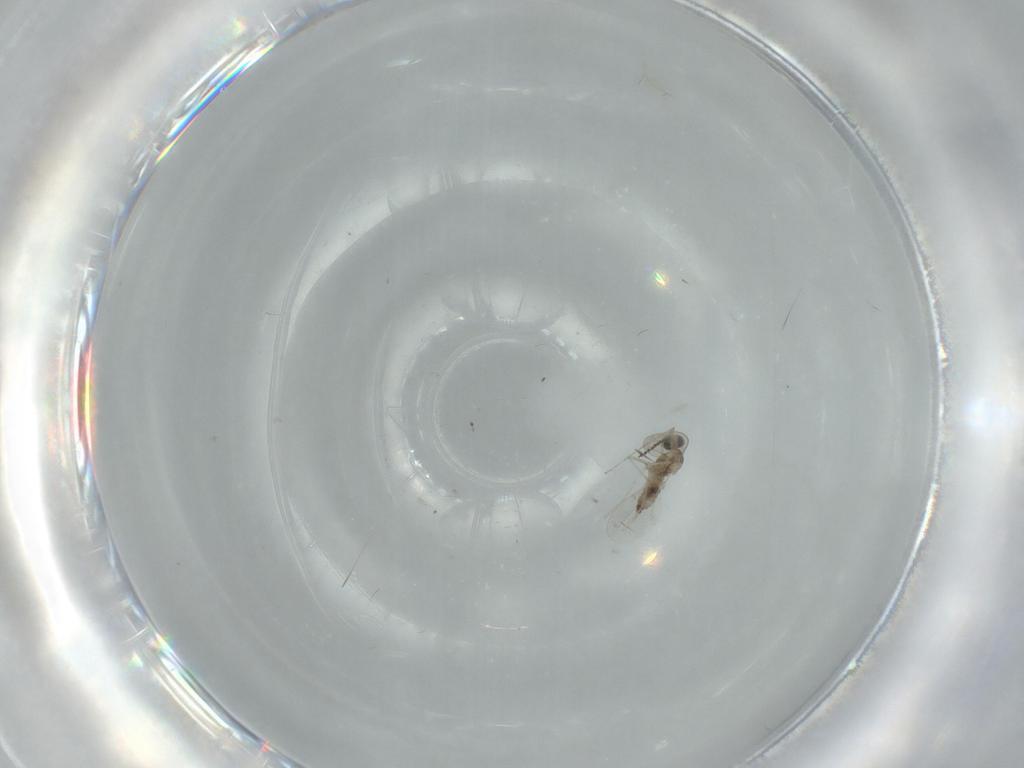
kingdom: Animalia
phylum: Arthropoda
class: Insecta
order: Diptera
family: Cecidomyiidae
